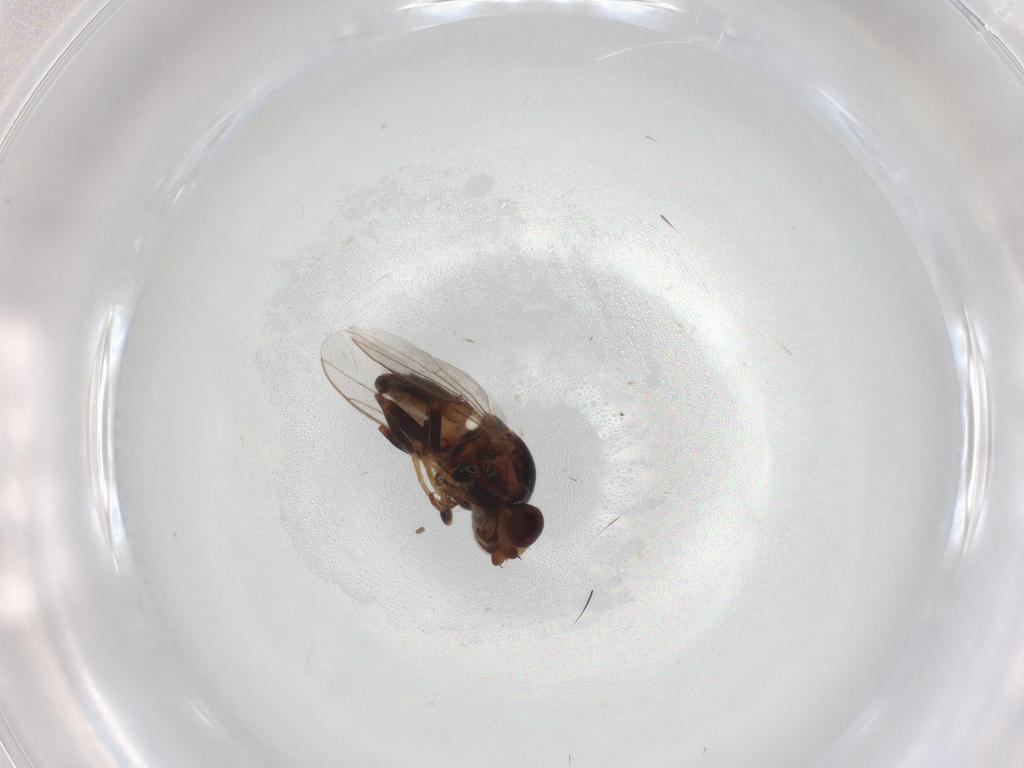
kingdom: Animalia
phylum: Arthropoda
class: Insecta
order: Diptera
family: Chloropidae
